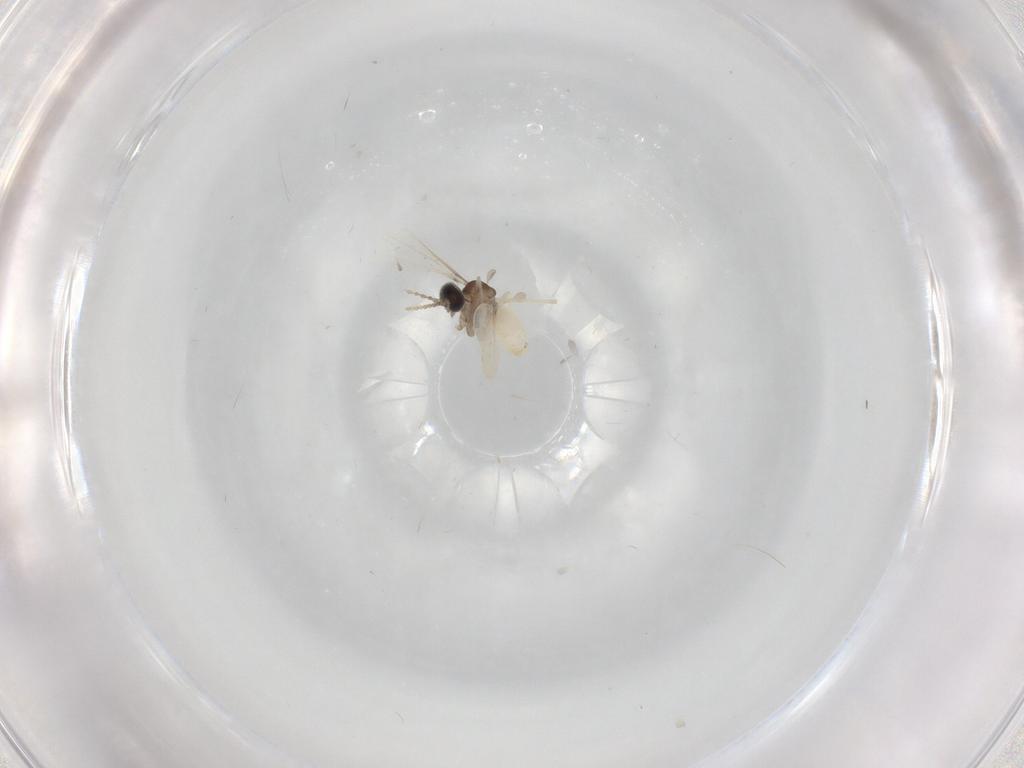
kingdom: Animalia
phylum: Arthropoda
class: Insecta
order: Diptera
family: Cecidomyiidae
